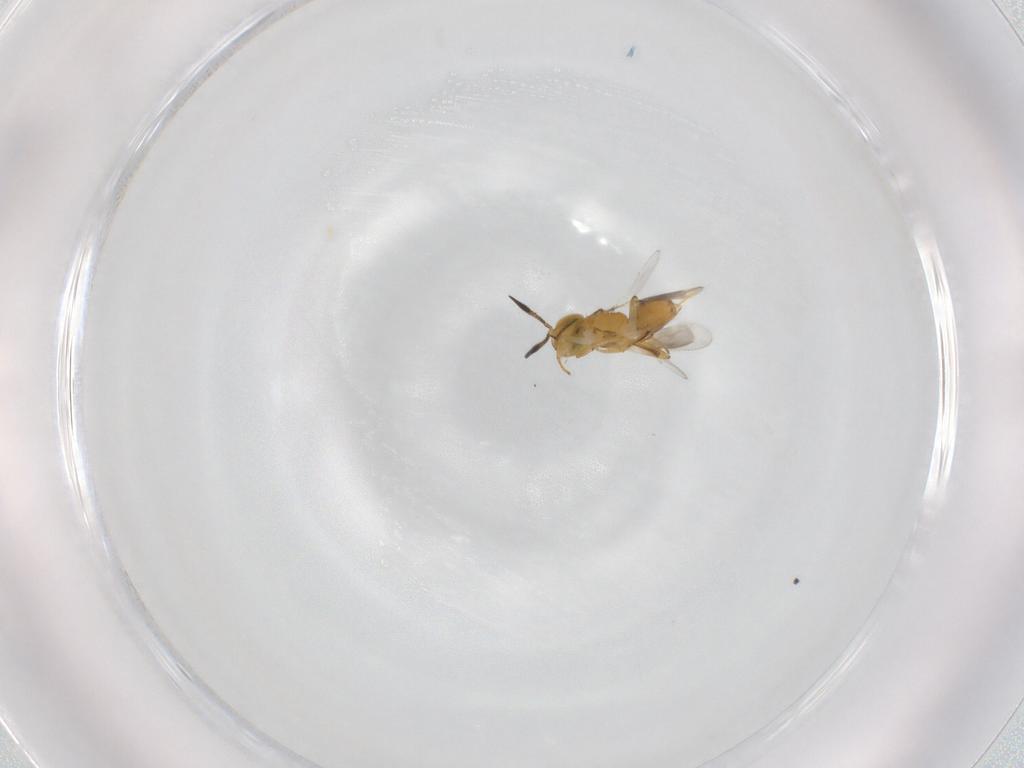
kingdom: Animalia
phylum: Arthropoda
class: Insecta
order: Hymenoptera
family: Encyrtidae
